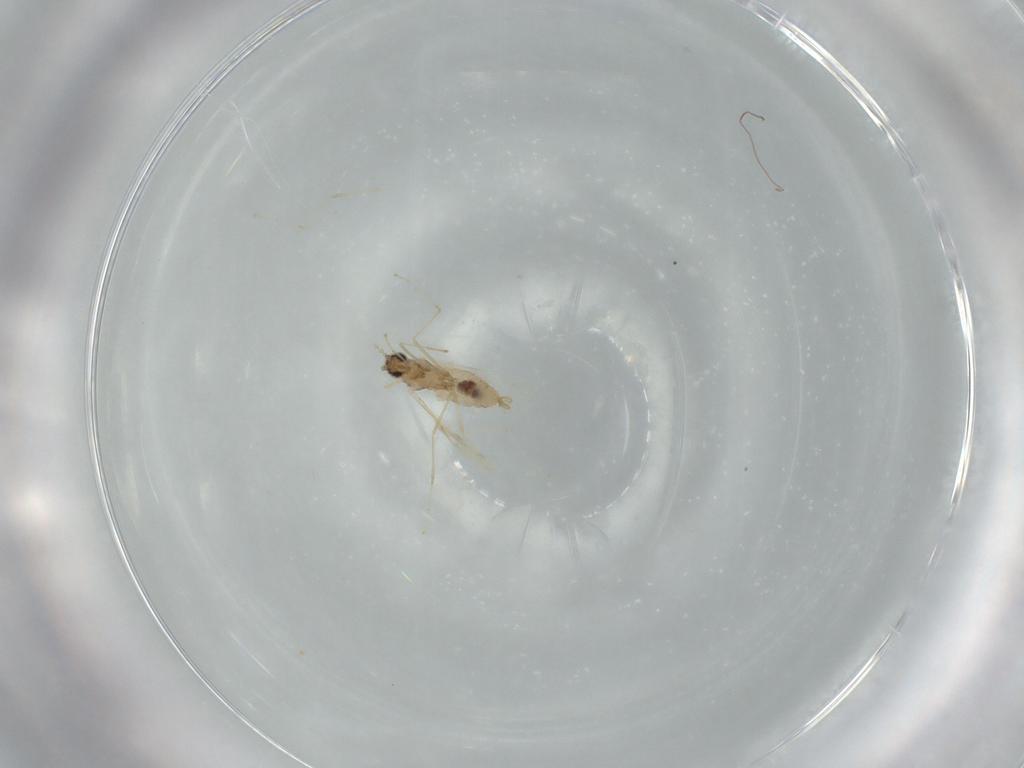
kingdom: Animalia
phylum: Arthropoda
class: Insecta
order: Diptera
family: Cecidomyiidae
